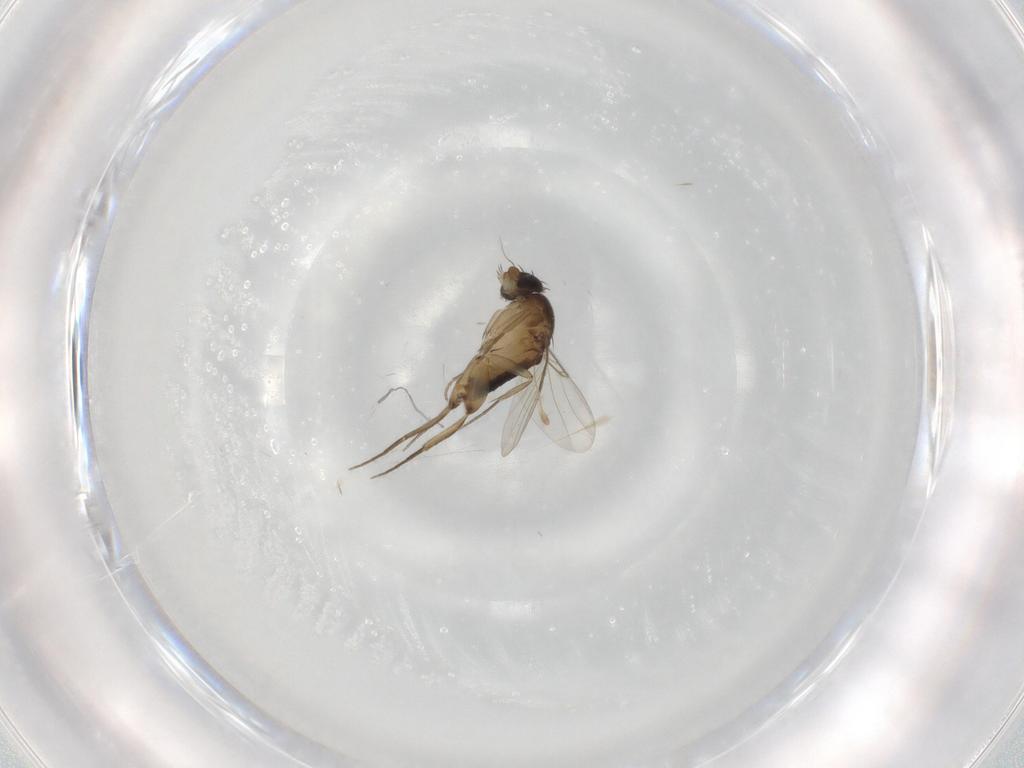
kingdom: Animalia
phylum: Arthropoda
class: Insecta
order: Diptera
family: Phoridae
